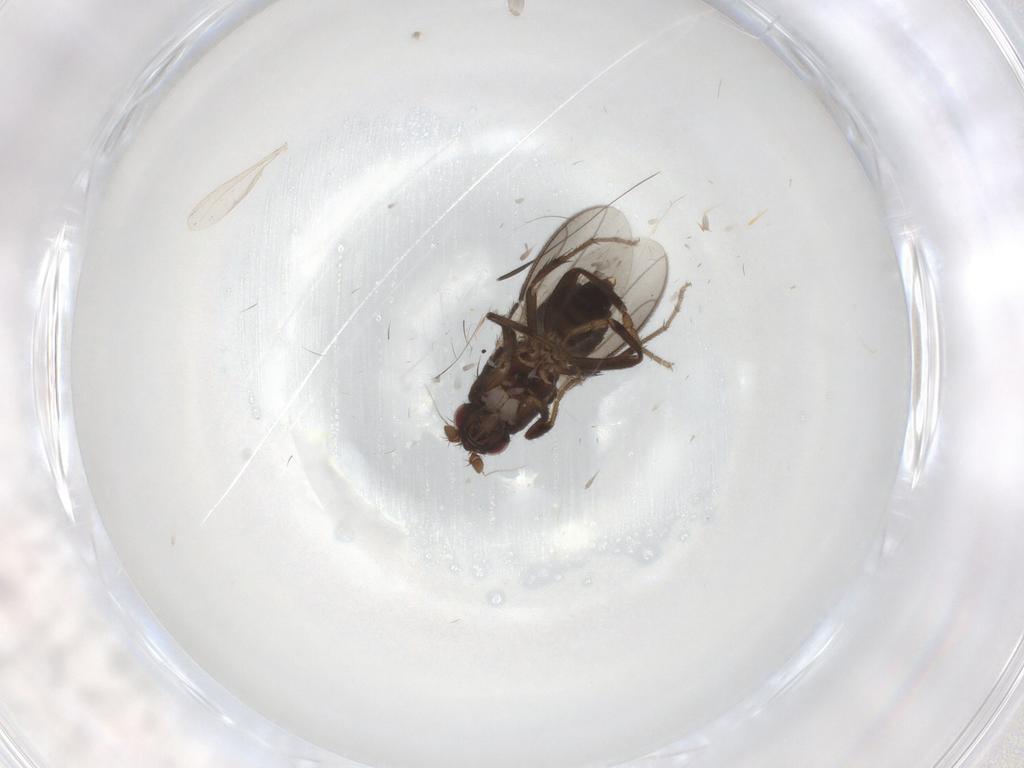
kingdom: Animalia
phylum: Arthropoda
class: Insecta
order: Diptera
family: Sphaeroceridae
